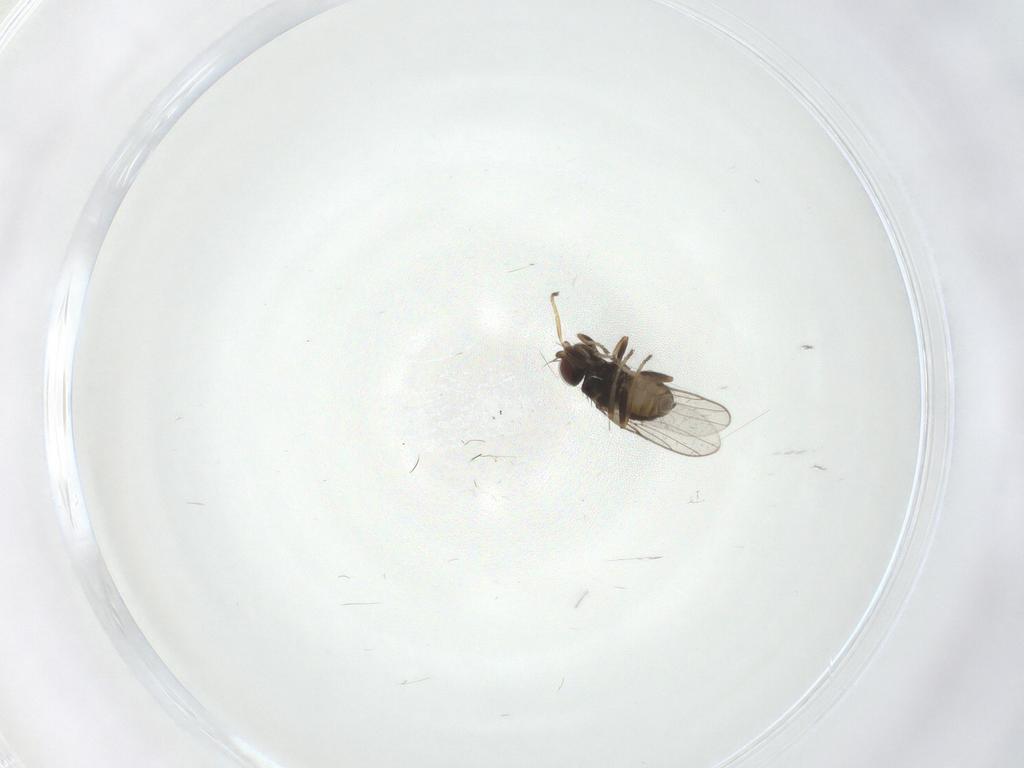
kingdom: Animalia
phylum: Arthropoda
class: Insecta
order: Diptera
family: Chloropidae
